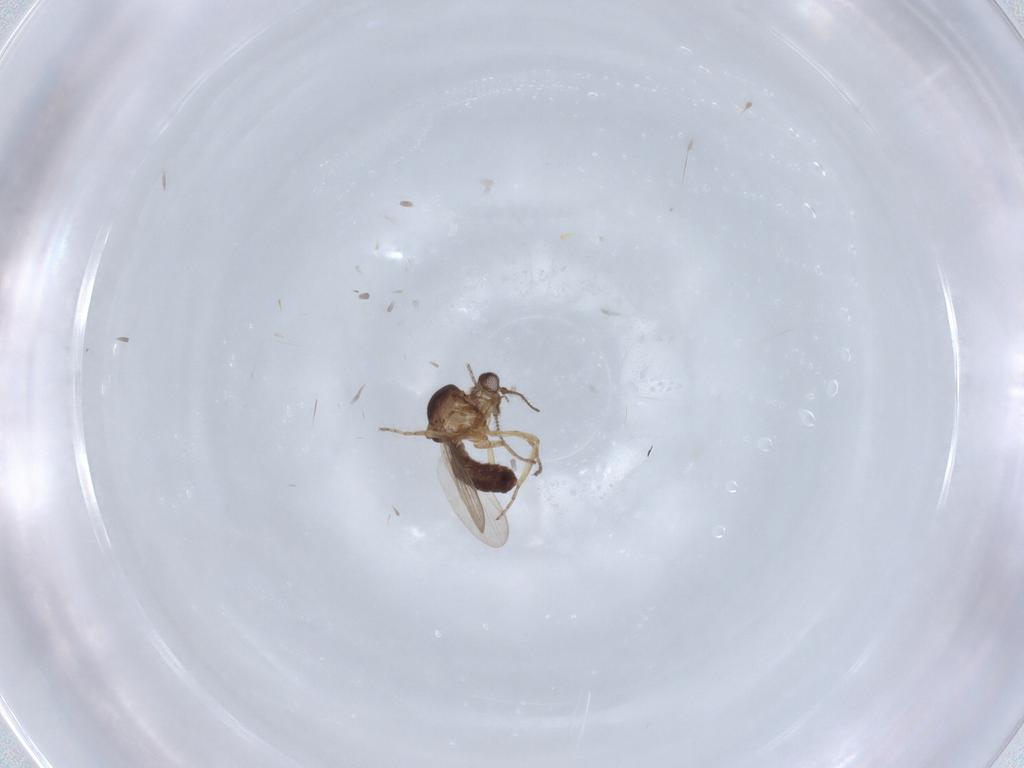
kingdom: Animalia
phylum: Arthropoda
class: Insecta
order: Diptera
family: Ceratopogonidae
